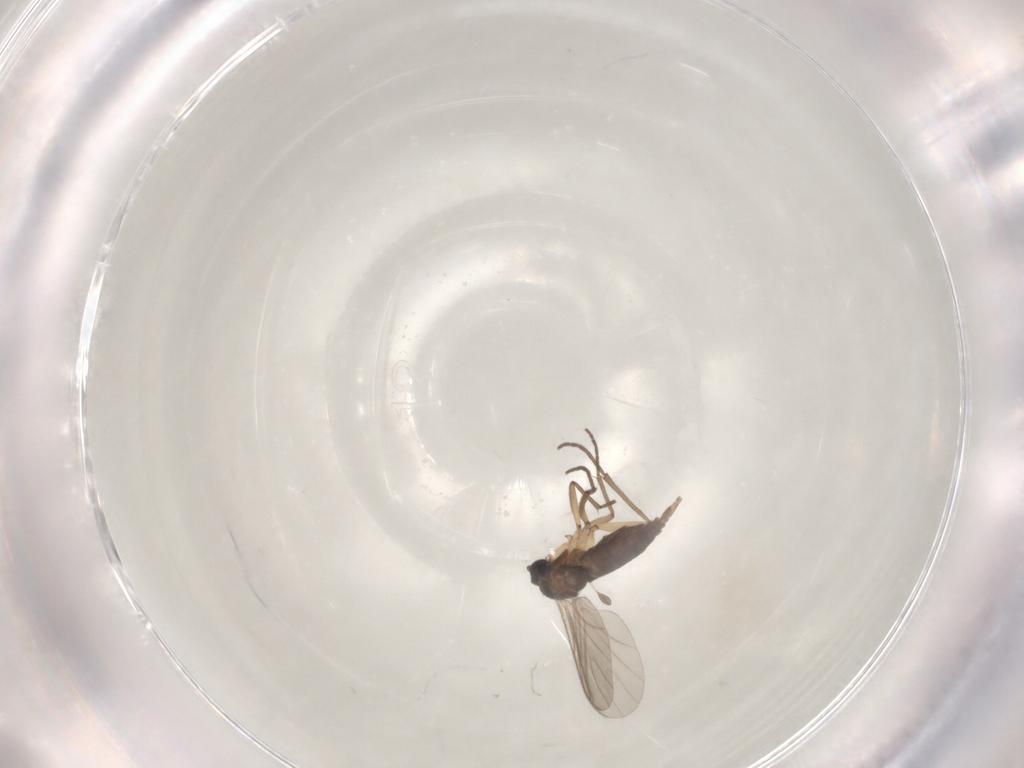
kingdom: Animalia
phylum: Arthropoda
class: Insecta
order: Diptera
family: Sciaridae
